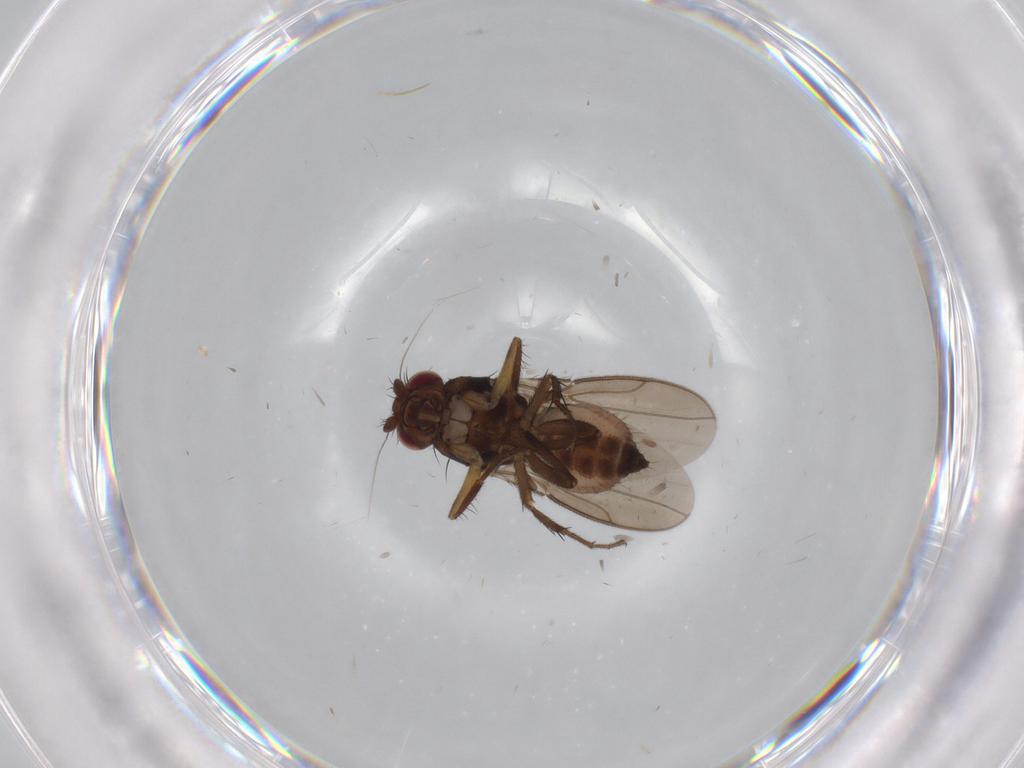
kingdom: Animalia
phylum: Arthropoda
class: Insecta
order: Diptera
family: Sphaeroceridae
